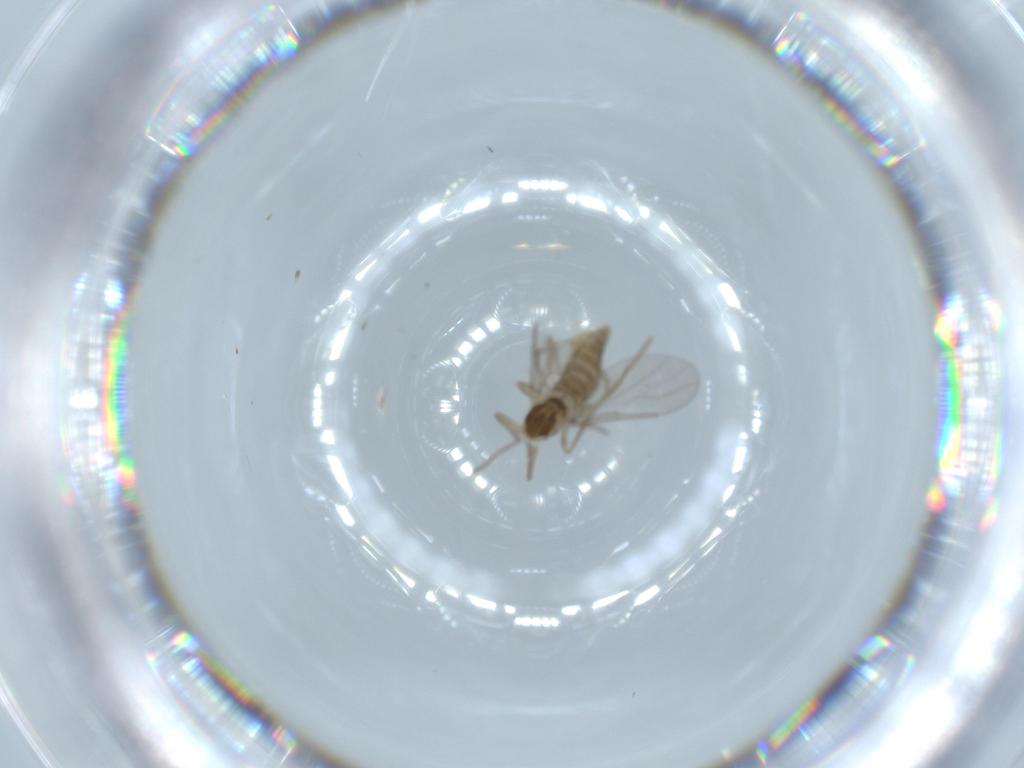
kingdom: Animalia
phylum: Arthropoda
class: Insecta
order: Diptera
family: Cecidomyiidae
